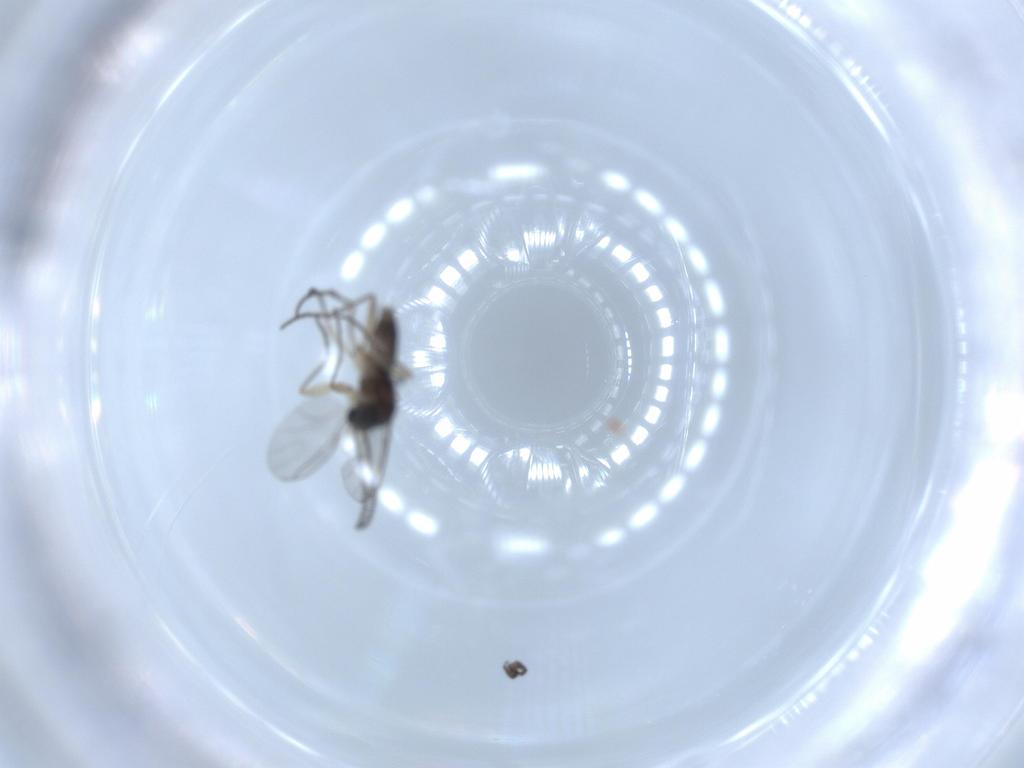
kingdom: Animalia
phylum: Arthropoda
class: Insecta
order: Diptera
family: Sciaridae
